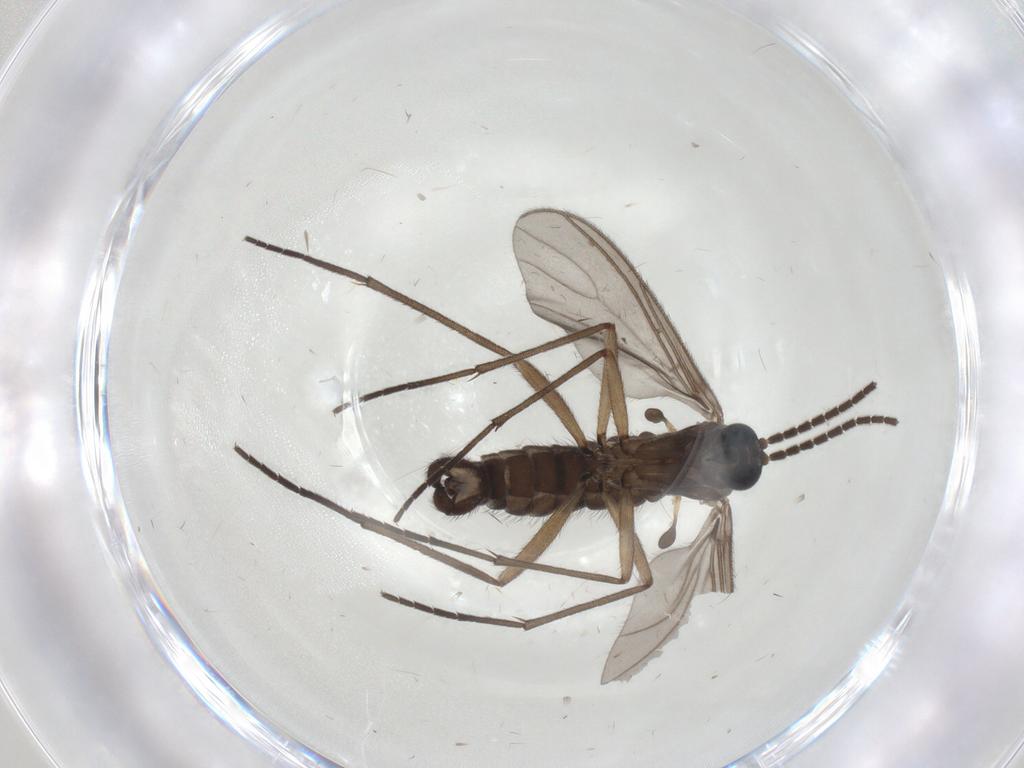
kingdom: Animalia
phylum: Arthropoda
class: Insecta
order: Diptera
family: Sciaridae
